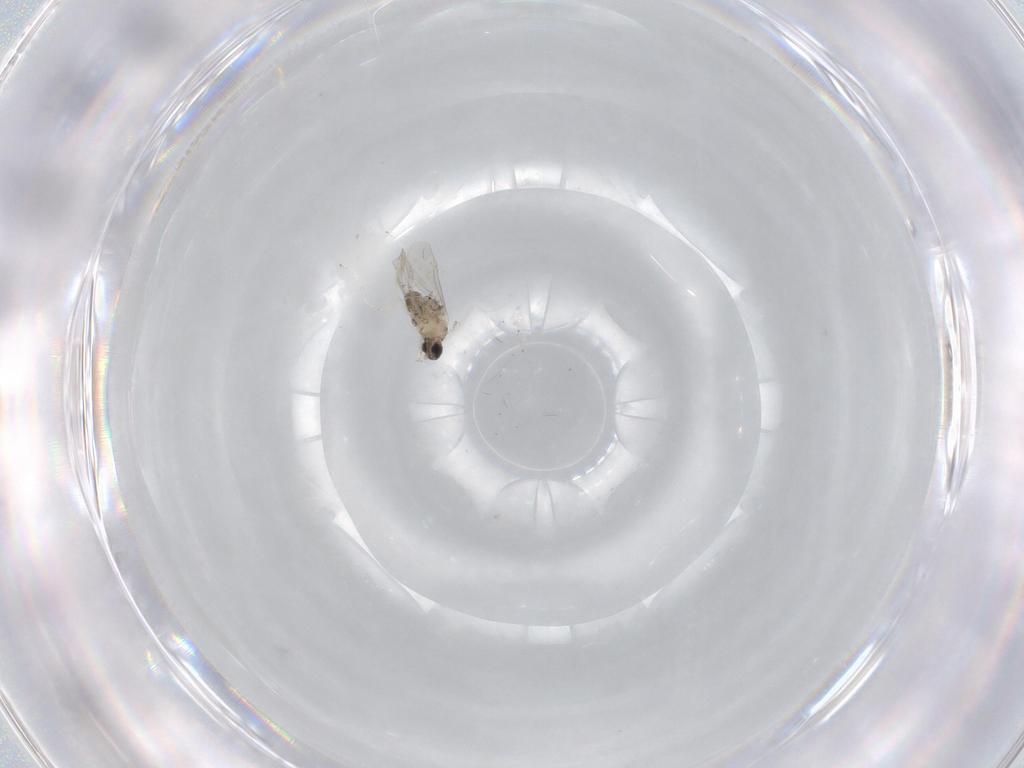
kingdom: Animalia
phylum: Arthropoda
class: Insecta
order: Diptera
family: Cecidomyiidae
